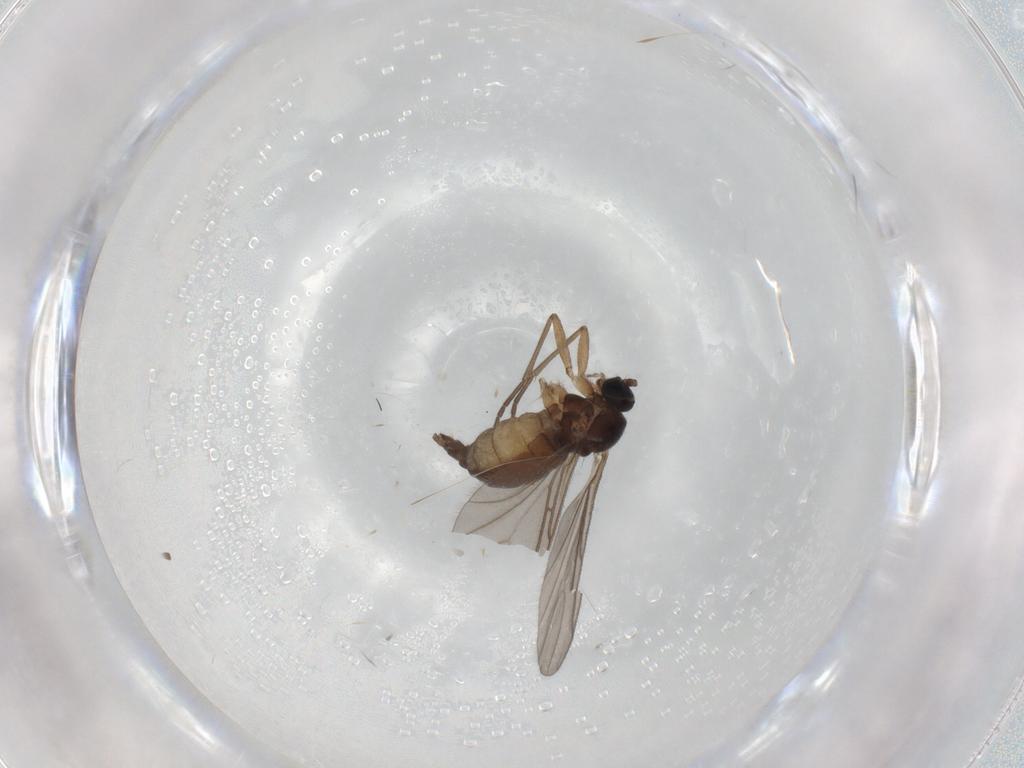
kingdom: Animalia
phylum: Arthropoda
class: Insecta
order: Diptera
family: Sciaridae
